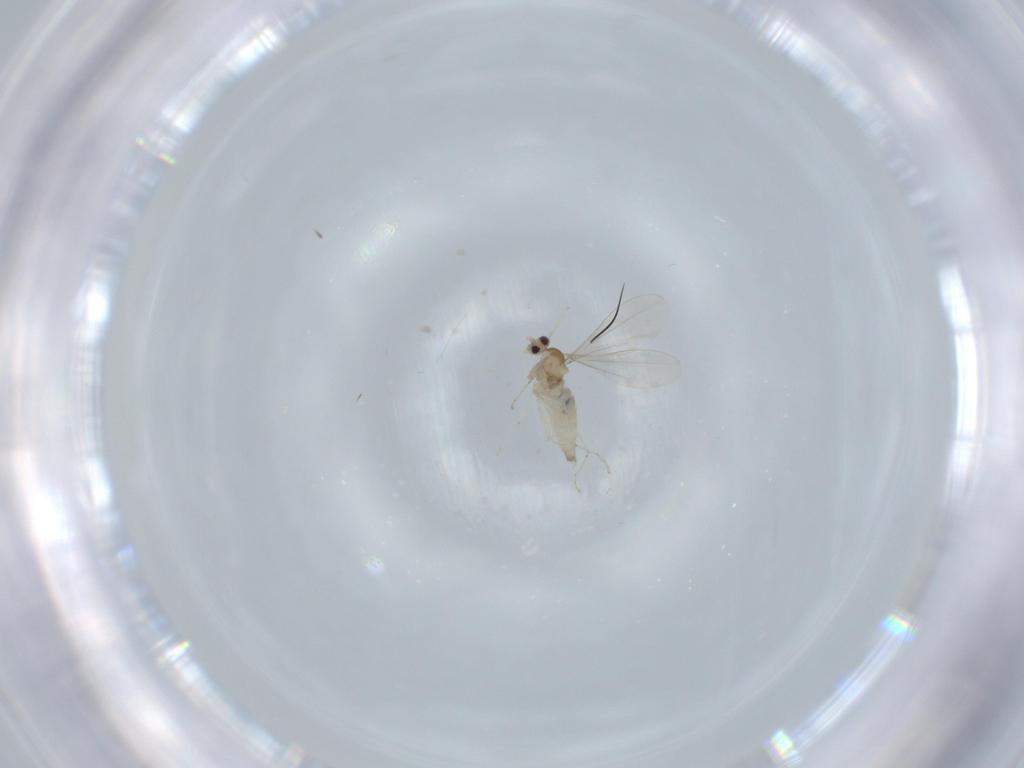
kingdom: Animalia
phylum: Arthropoda
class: Insecta
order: Diptera
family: Cecidomyiidae
